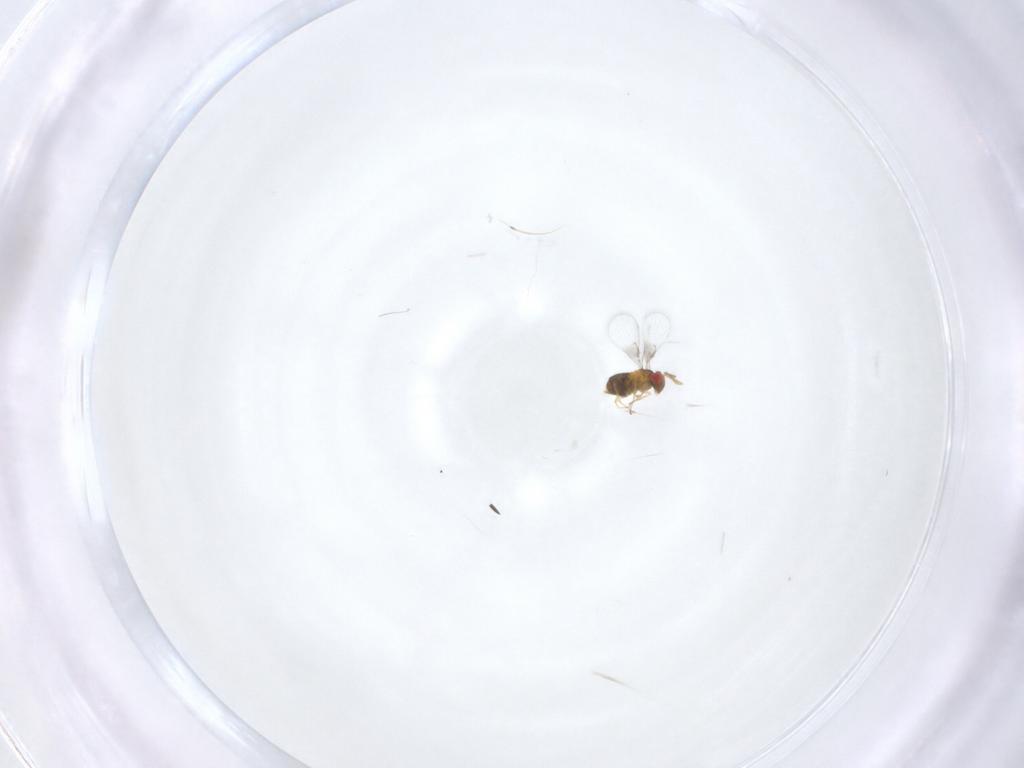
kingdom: Animalia
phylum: Arthropoda
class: Insecta
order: Hymenoptera
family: Trichogrammatidae
